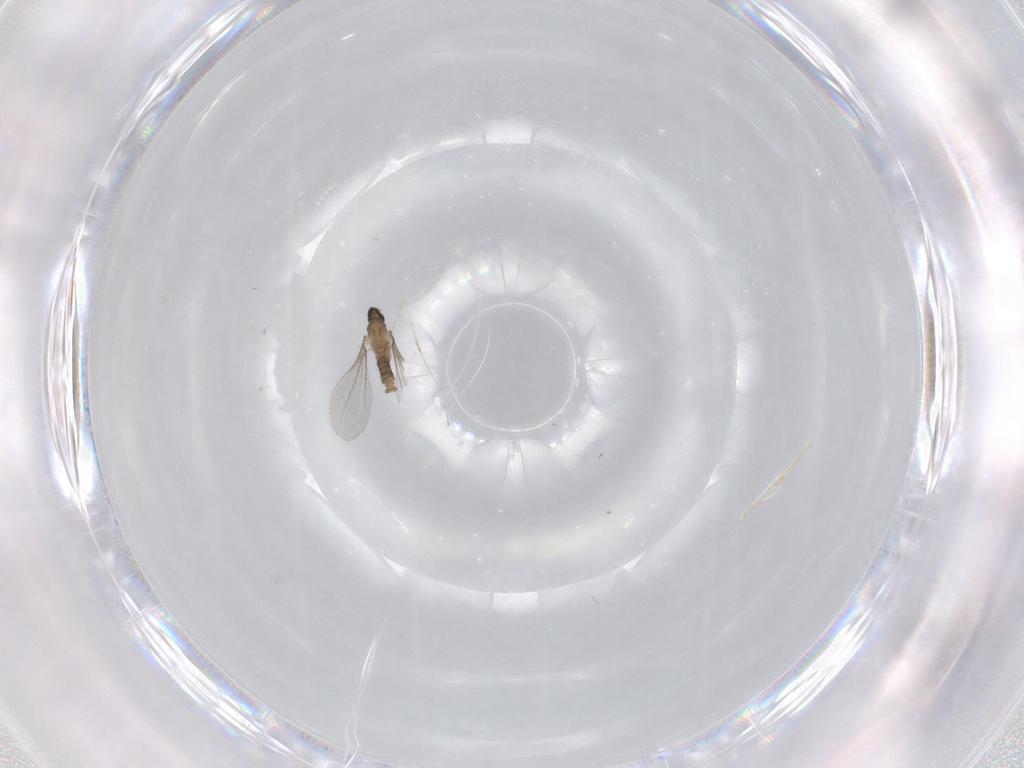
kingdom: Animalia
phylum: Arthropoda
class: Insecta
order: Diptera
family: Cecidomyiidae
